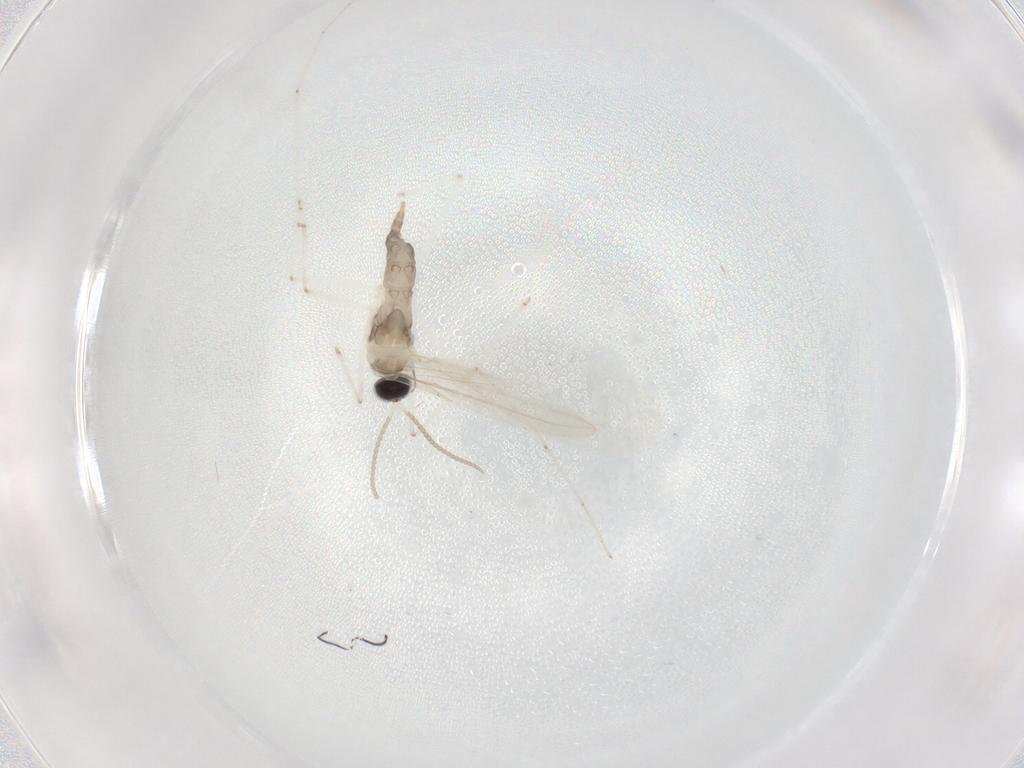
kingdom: Animalia
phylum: Arthropoda
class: Insecta
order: Diptera
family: Cecidomyiidae
